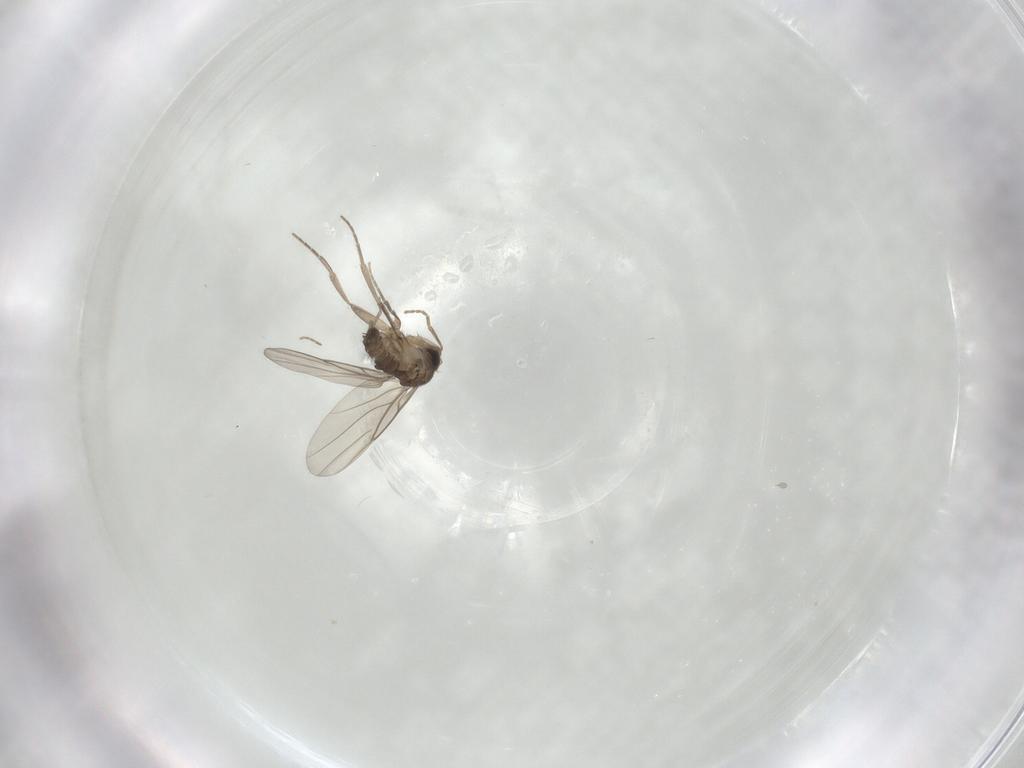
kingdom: Animalia
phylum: Arthropoda
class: Insecta
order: Diptera
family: Phoridae
